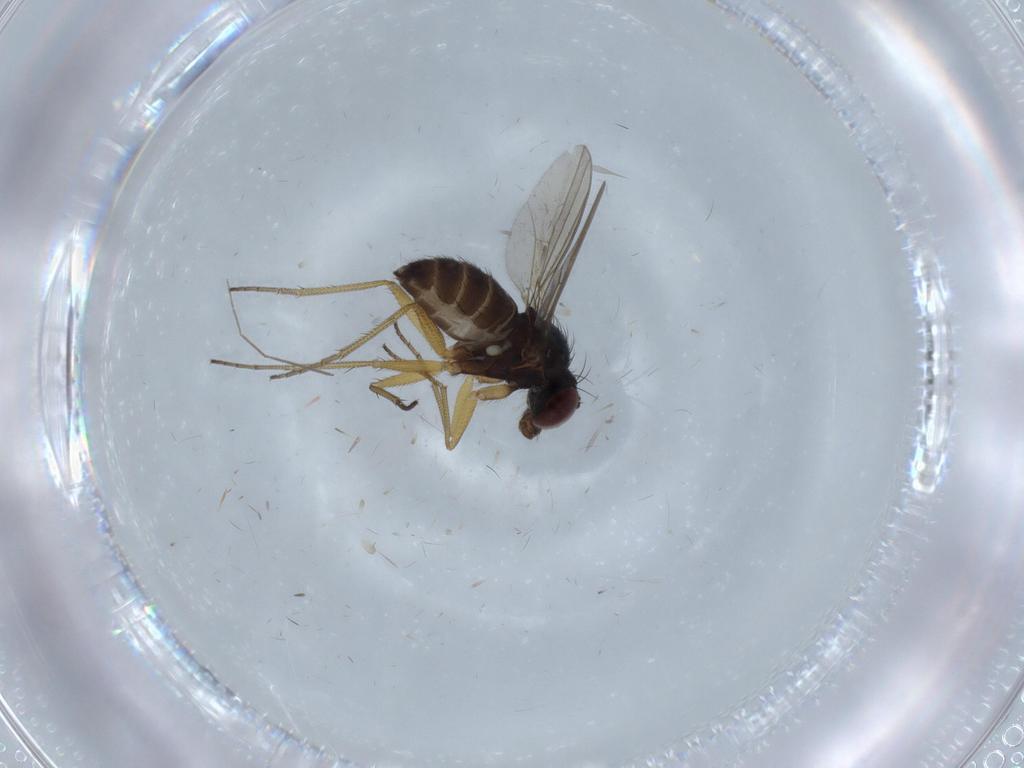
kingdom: Animalia
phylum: Arthropoda
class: Insecta
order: Diptera
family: Dolichopodidae
